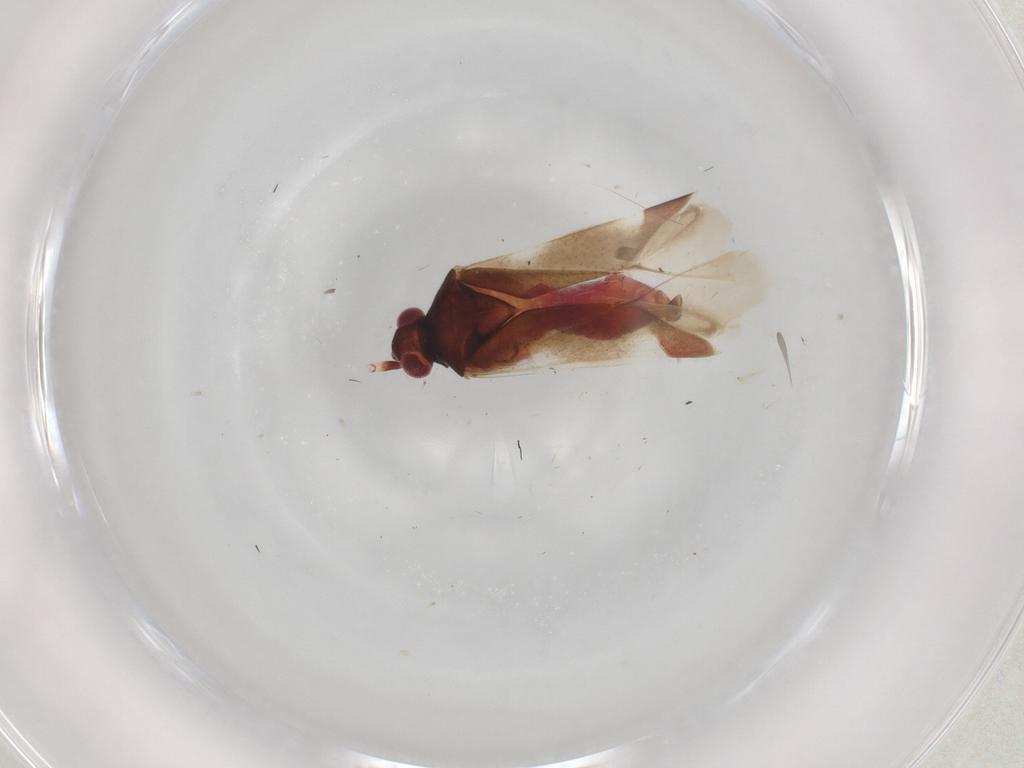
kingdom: Animalia
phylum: Arthropoda
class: Insecta
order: Hemiptera
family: Miridae
